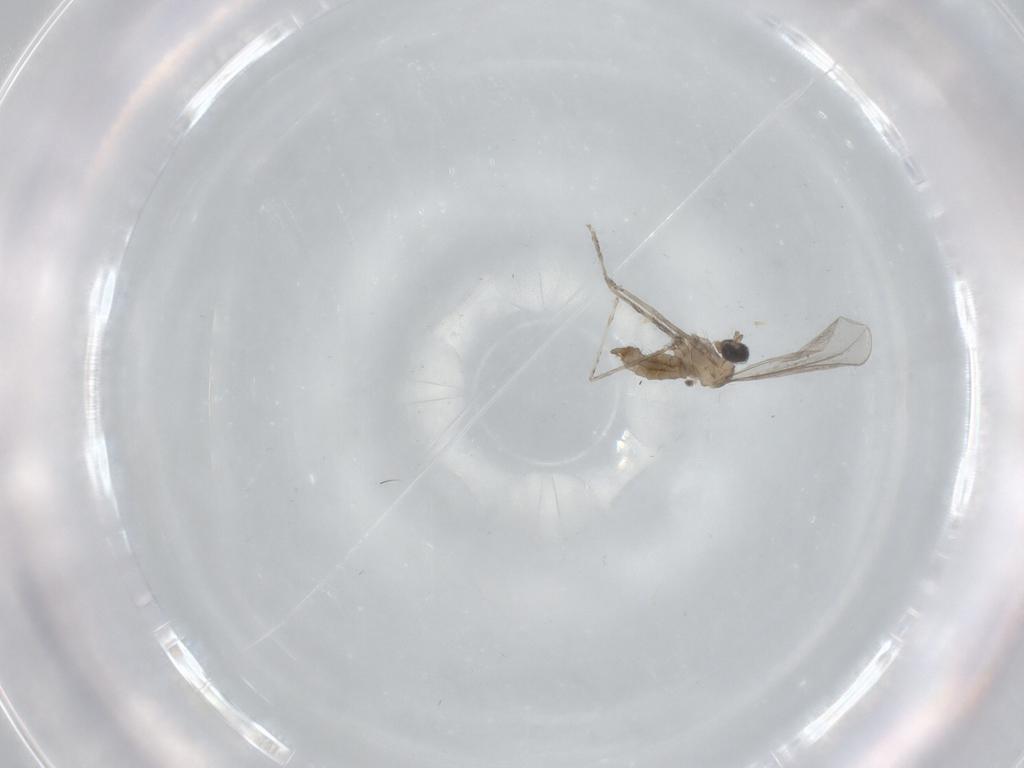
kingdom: Animalia
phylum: Arthropoda
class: Insecta
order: Diptera
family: Cecidomyiidae
